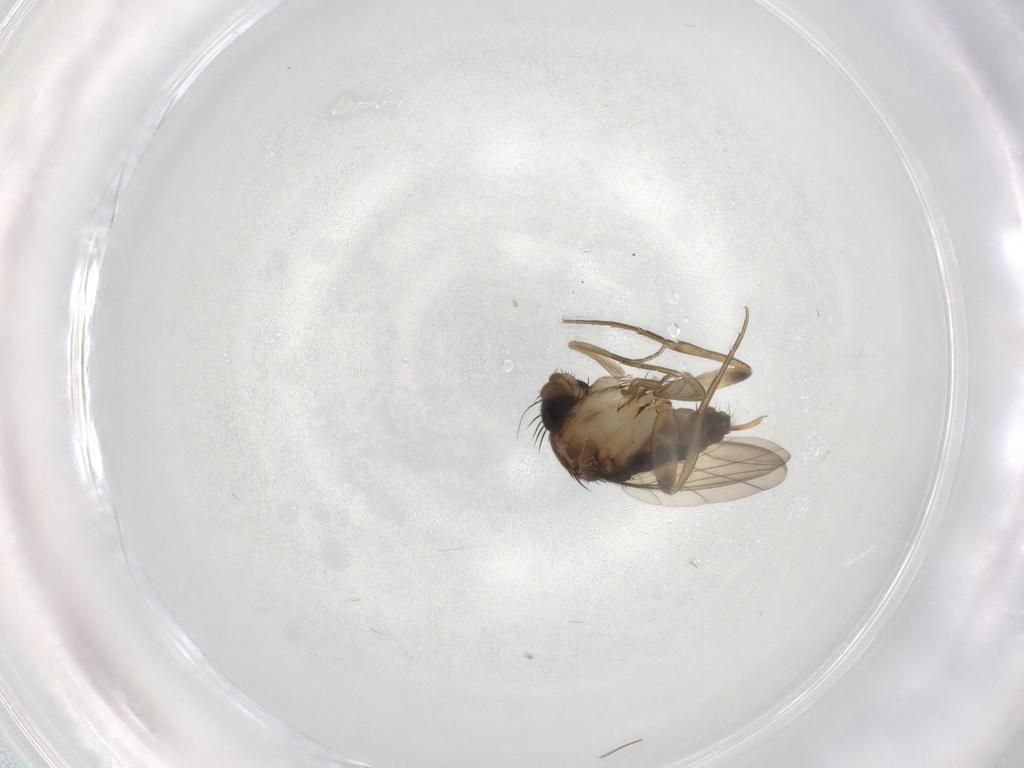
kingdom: Animalia
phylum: Arthropoda
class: Insecta
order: Diptera
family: Phoridae
